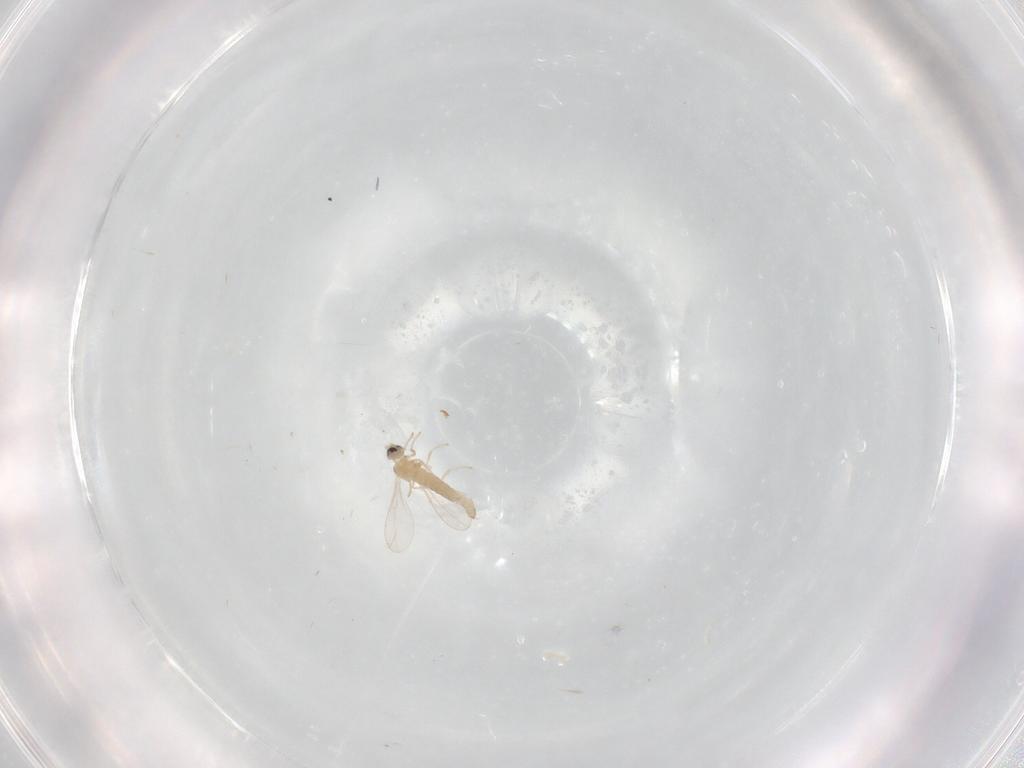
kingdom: Animalia
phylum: Arthropoda
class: Insecta
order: Diptera
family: Cecidomyiidae
